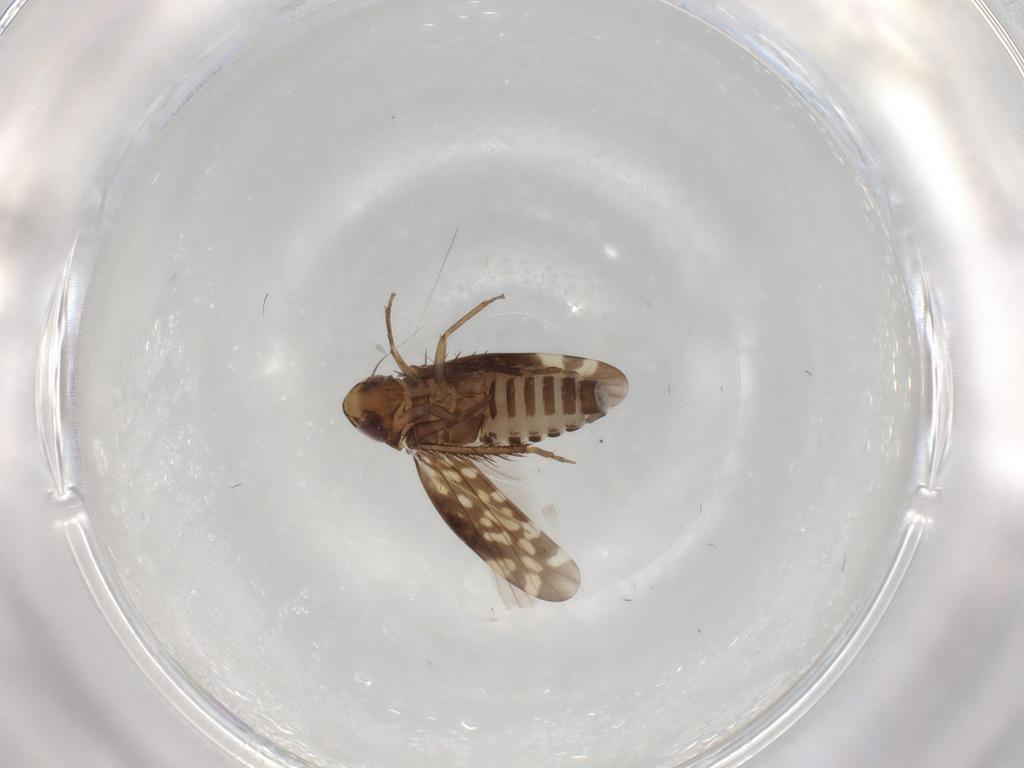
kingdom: Animalia
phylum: Arthropoda
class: Insecta
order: Hemiptera
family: Cicadellidae
